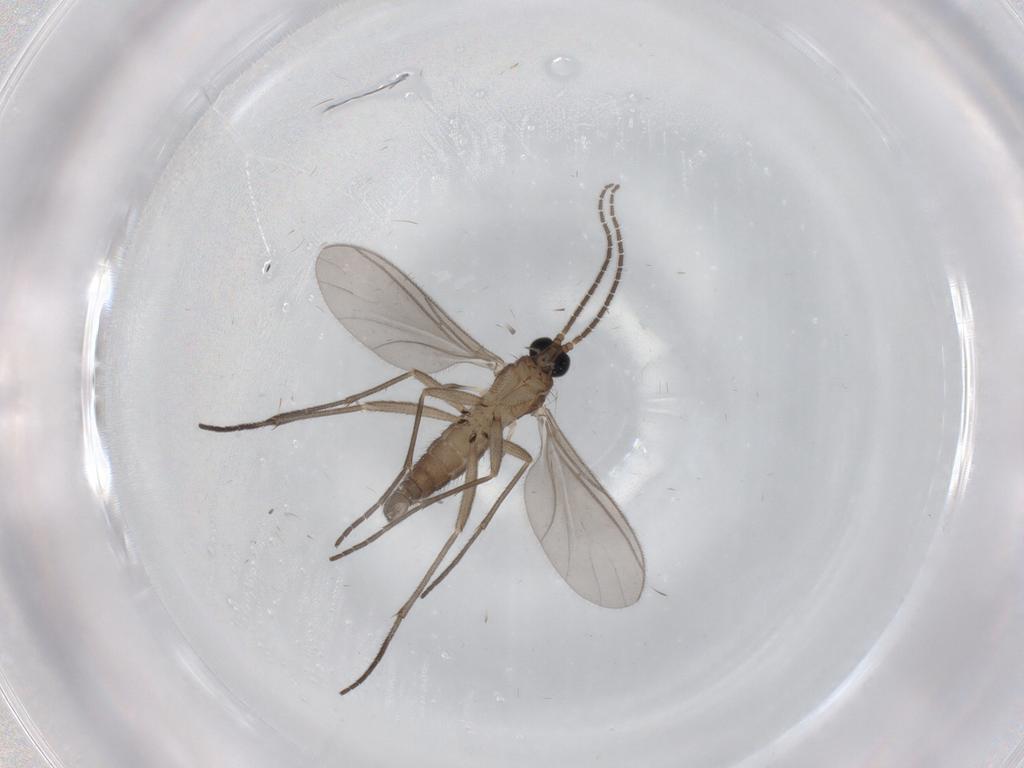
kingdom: Animalia
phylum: Arthropoda
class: Insecta
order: Diptera
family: Sciaridae
